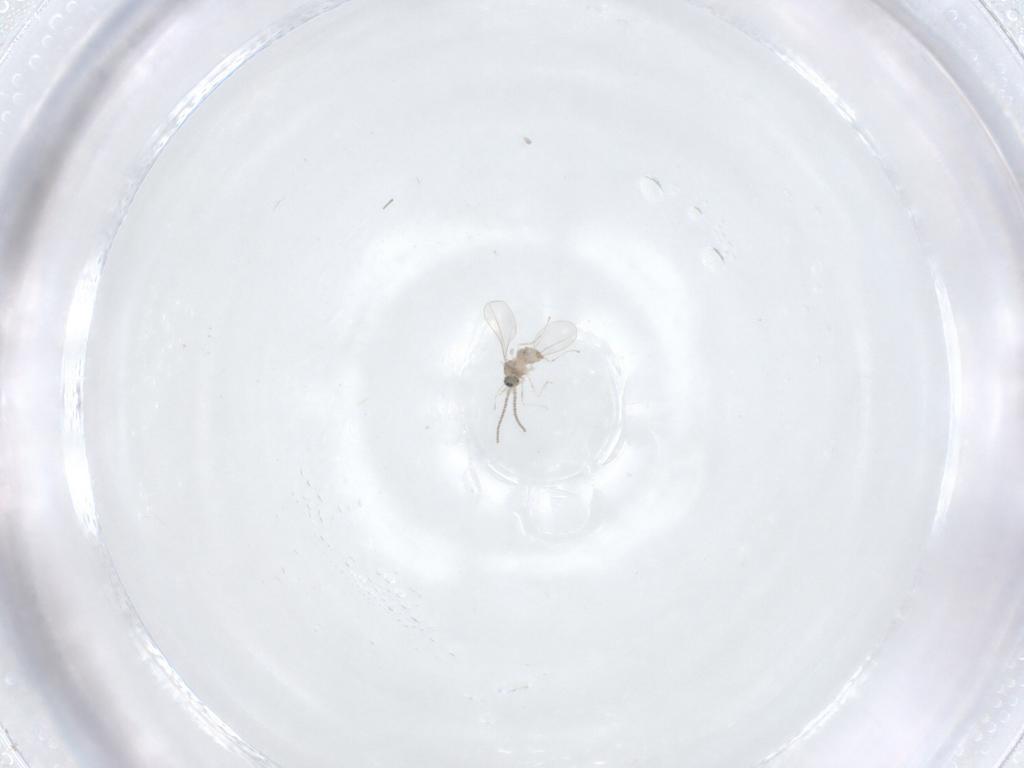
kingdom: Animalia
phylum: Arthropoda
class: Insecta
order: Diptera
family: Cecidomyiidae
